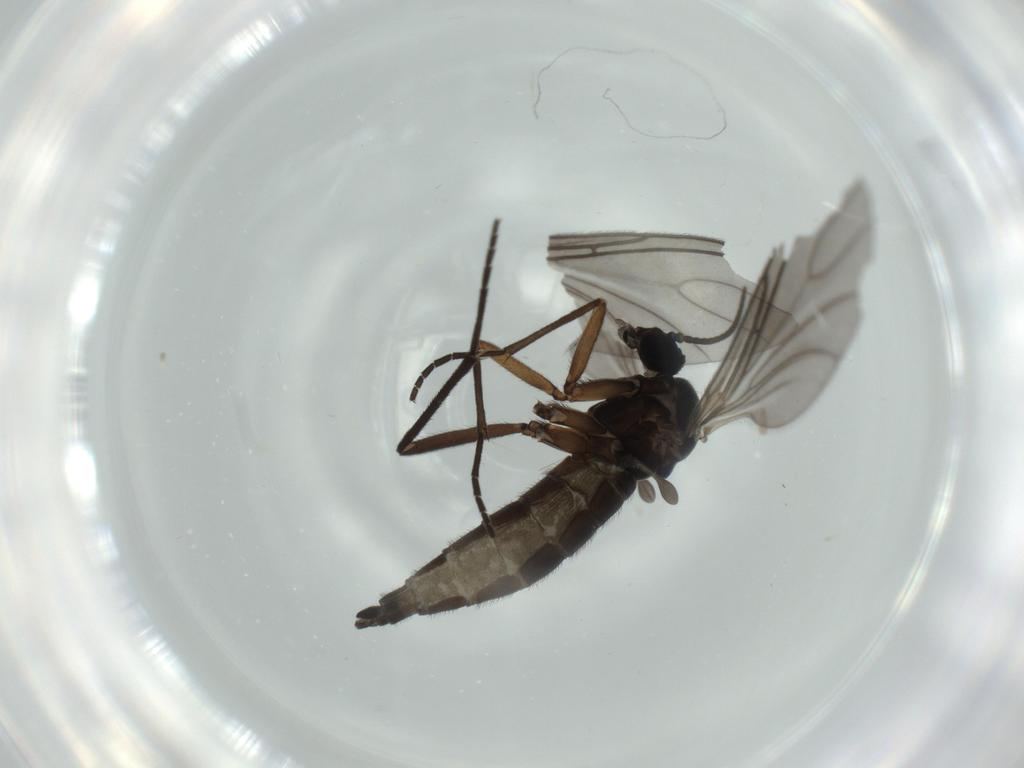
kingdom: Animalia
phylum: Arthropoda
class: Insecta
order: Diptera
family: Sciaridae
